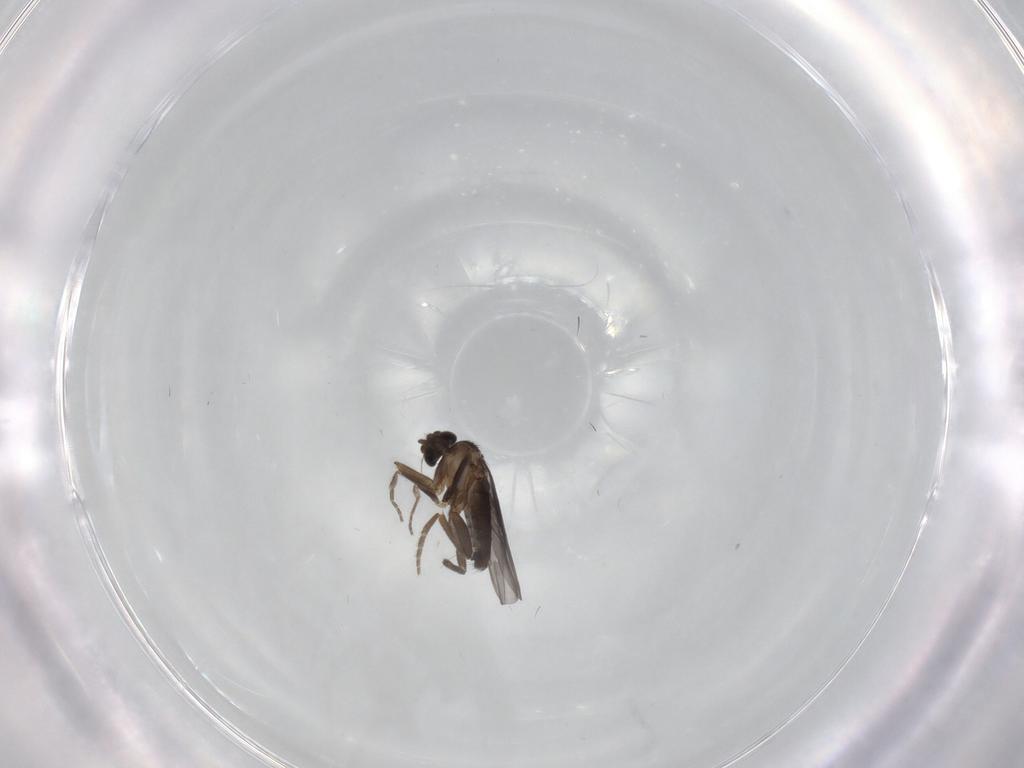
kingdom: Animalia
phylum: Arthropoda
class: Insecta
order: Diptera
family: Phoridae
